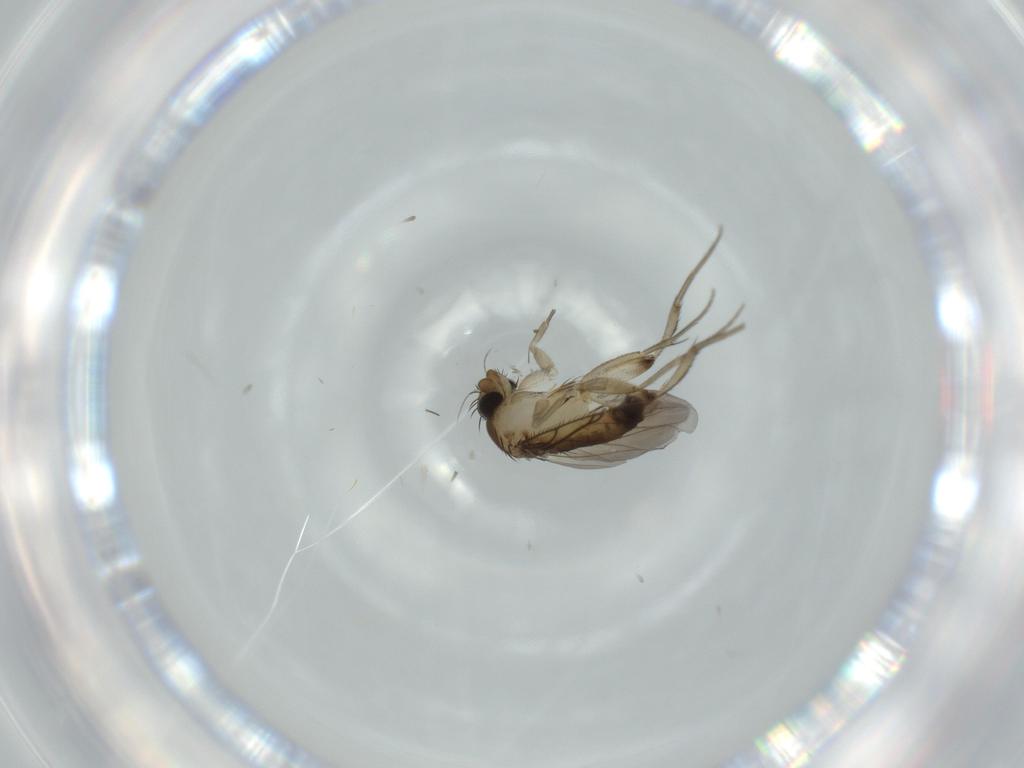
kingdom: Animalia
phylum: Arthropoda
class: Insecta
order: Diptera
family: Phoridae
